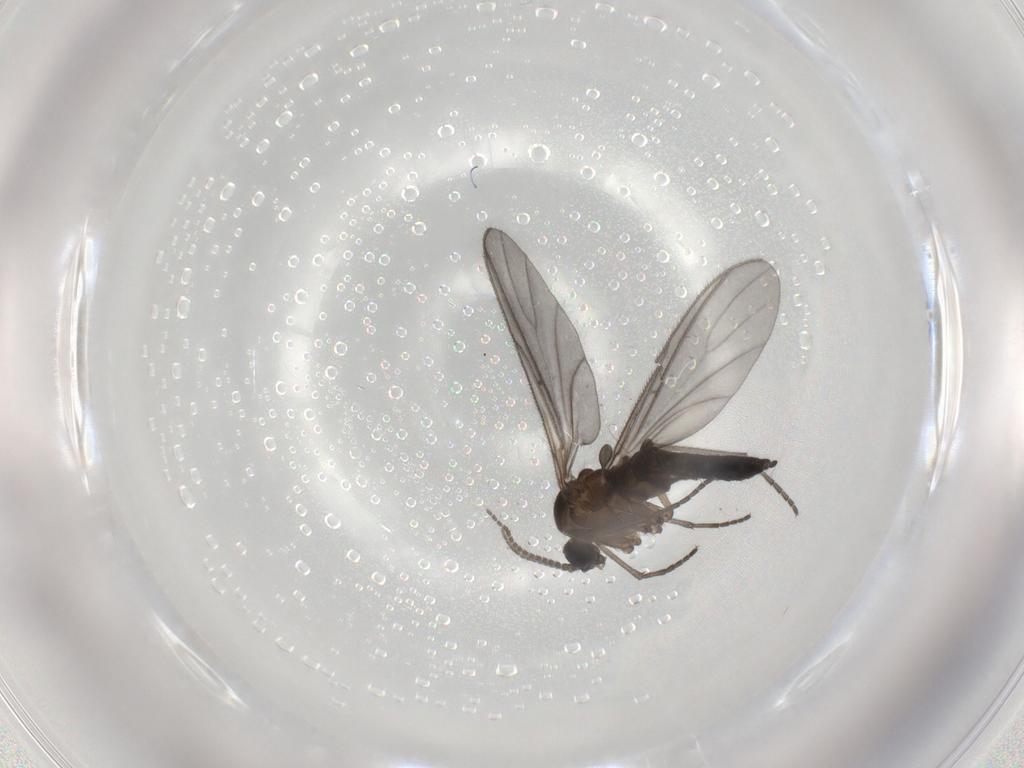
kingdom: Animalia
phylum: Arthropoda
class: Insecta
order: Diptera
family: Sciaridae
